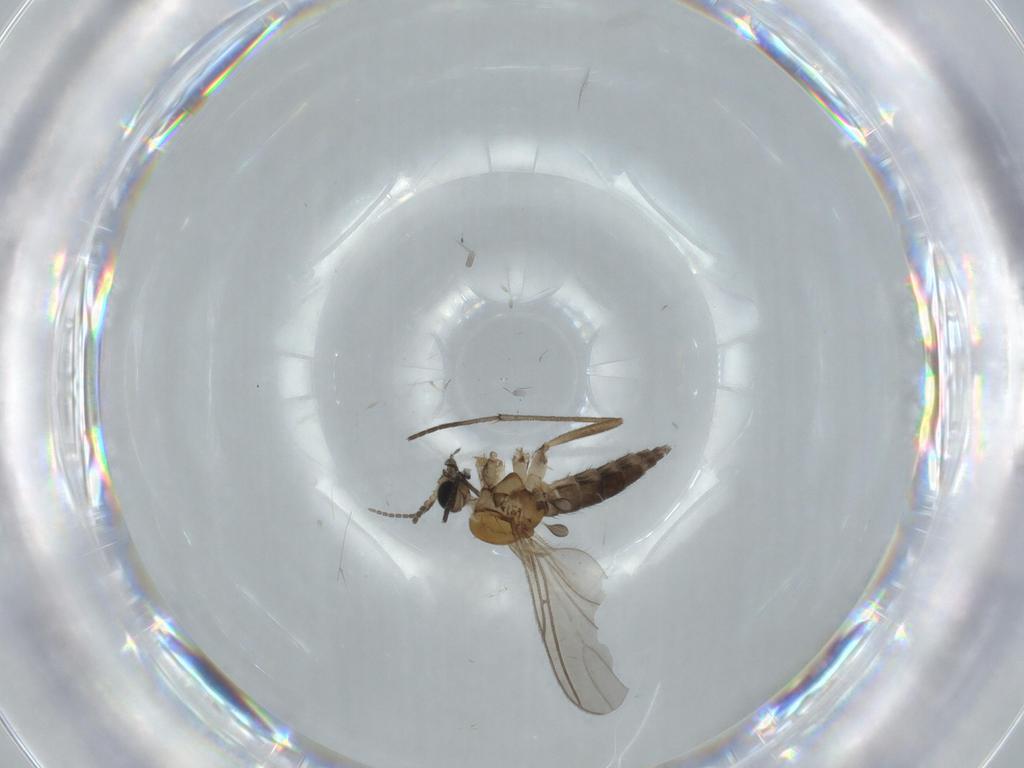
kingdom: Animalia
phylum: Arthropoda
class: Insecta
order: Diptera
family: Sciaridae
